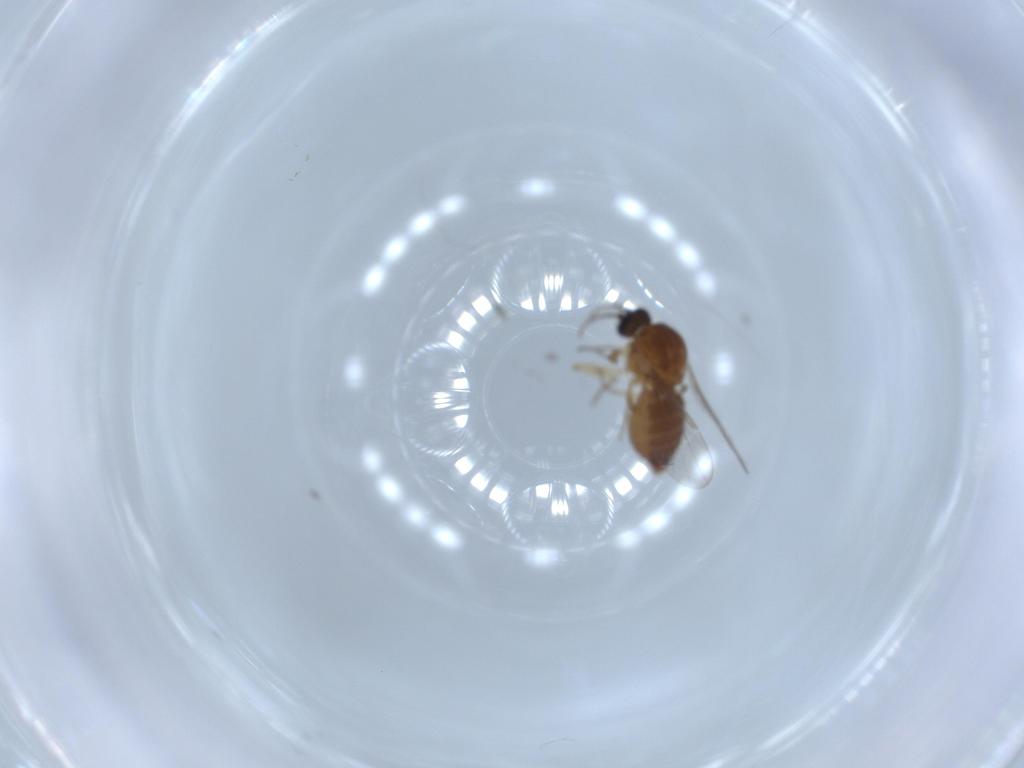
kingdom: Animalia
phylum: Arthropoda
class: Insecta
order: Diptera
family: Ceratopogonidae
